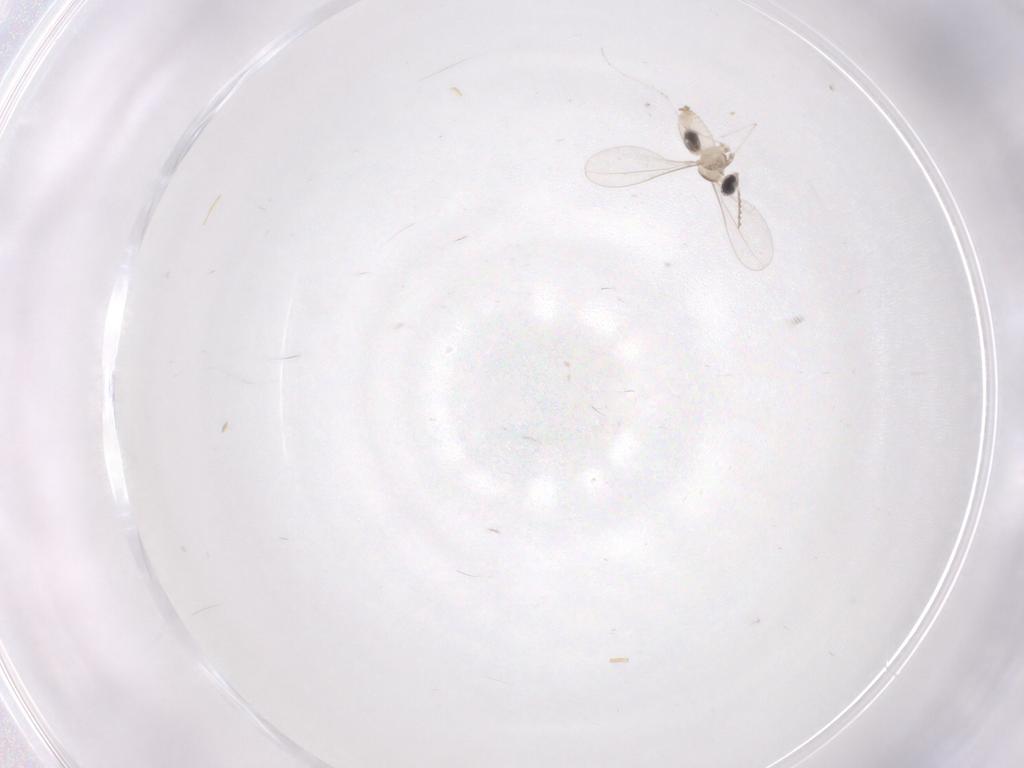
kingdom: Animalia
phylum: Arthropoda
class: Insecta
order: Diptera
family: Cecidomyiidae
